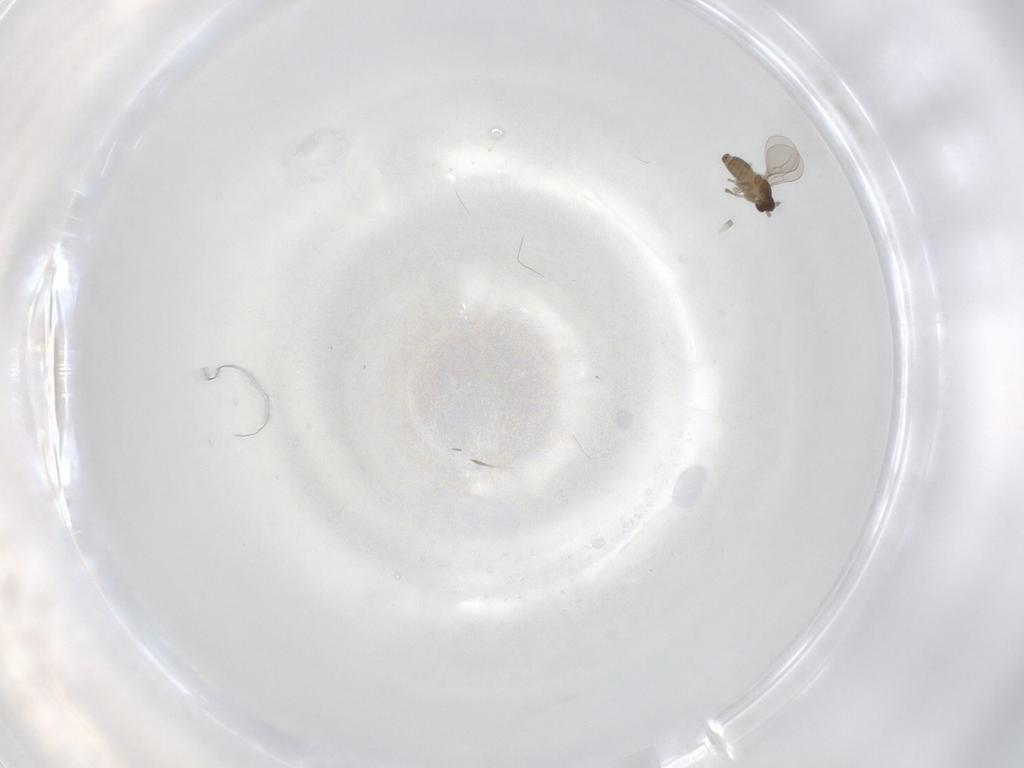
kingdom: Animalia
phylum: Arthropoda
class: Insecta
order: Diptera
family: Cecidomyiidae
